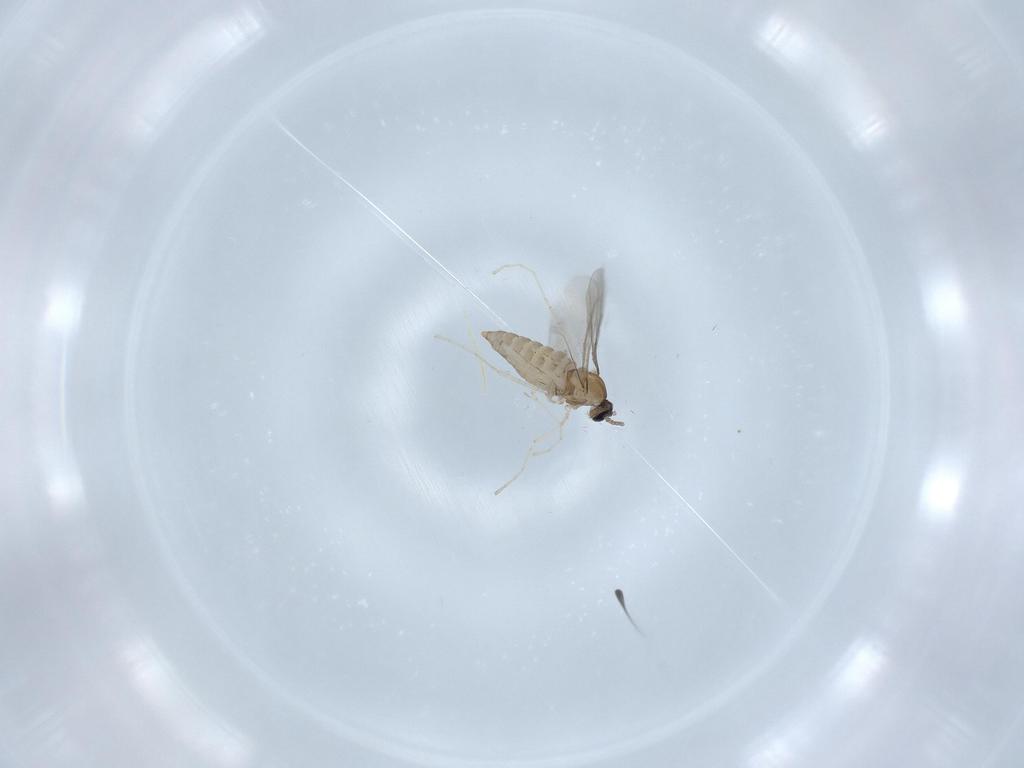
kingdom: Animalia
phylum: Arthropoda
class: Insecta
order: Diptera
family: Cecidomyiidae
